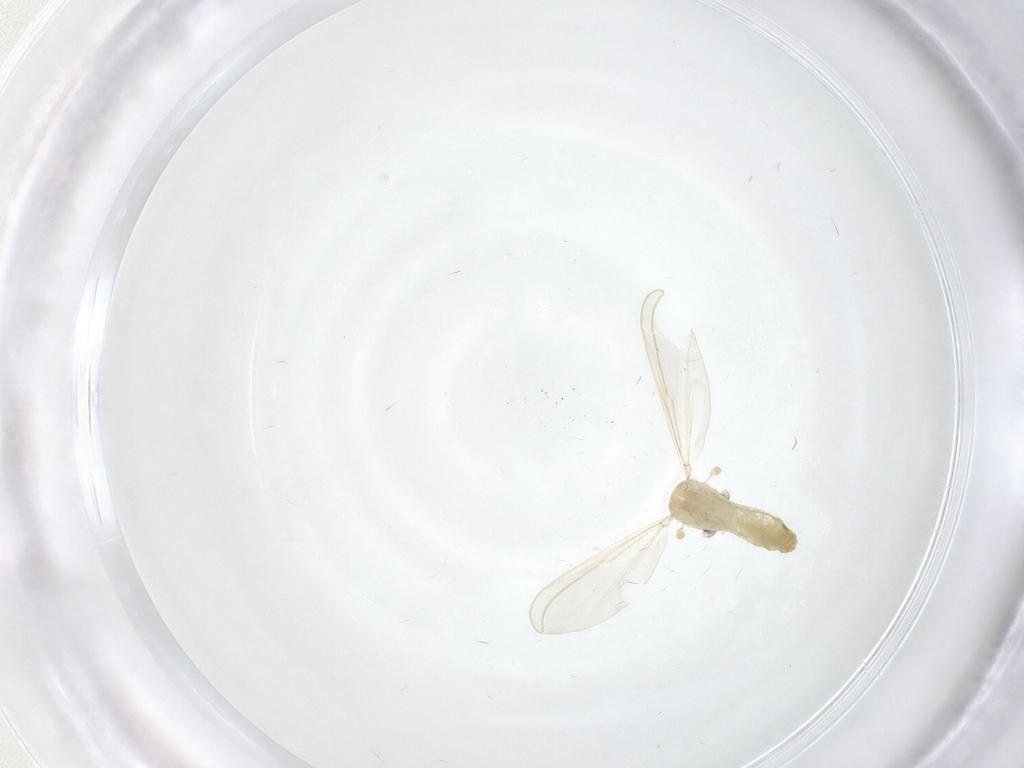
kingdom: Animalia
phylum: Arthropoda
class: Insecta
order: Diptera
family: Chironomidae
